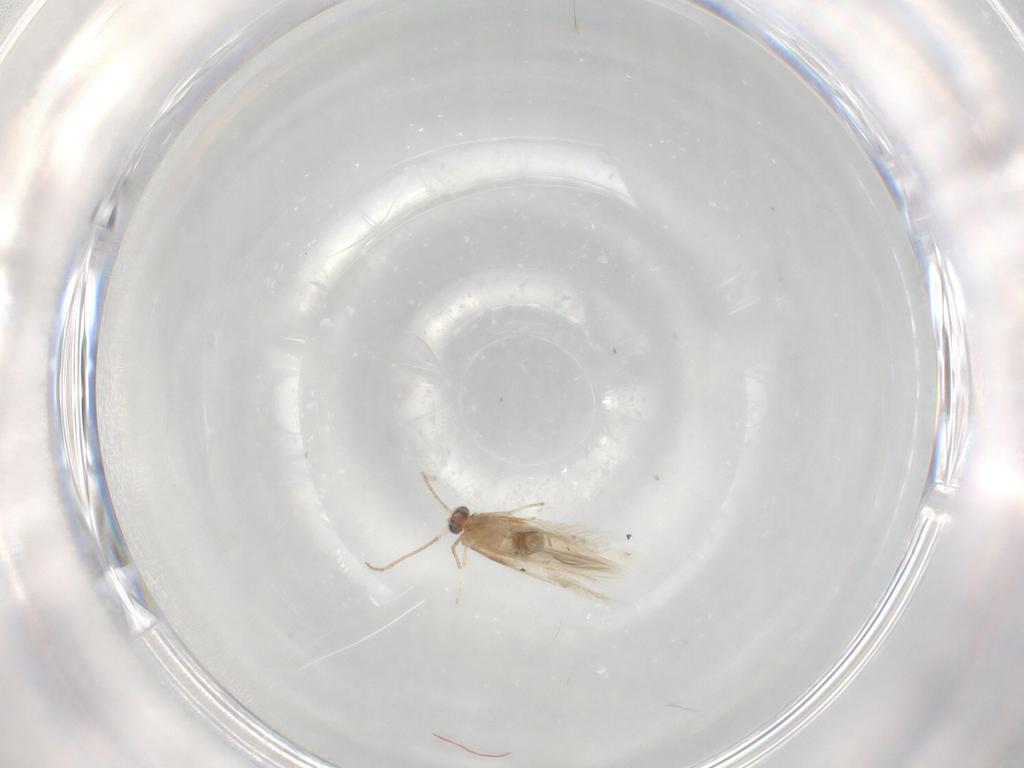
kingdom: Animalia
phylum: Arthropoda
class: Insecta
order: Lepidoptera
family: Nepticulidae
